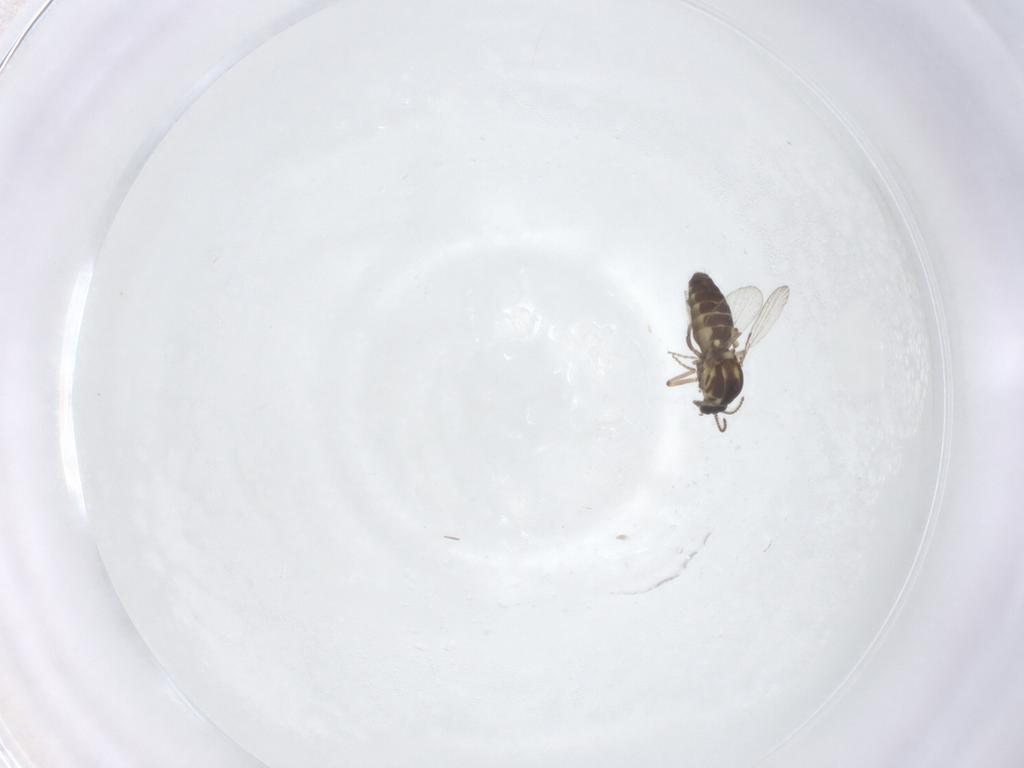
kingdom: Animalia
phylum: Arthropoda
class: Insecta
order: Diptera
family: Ceratopogonidae
